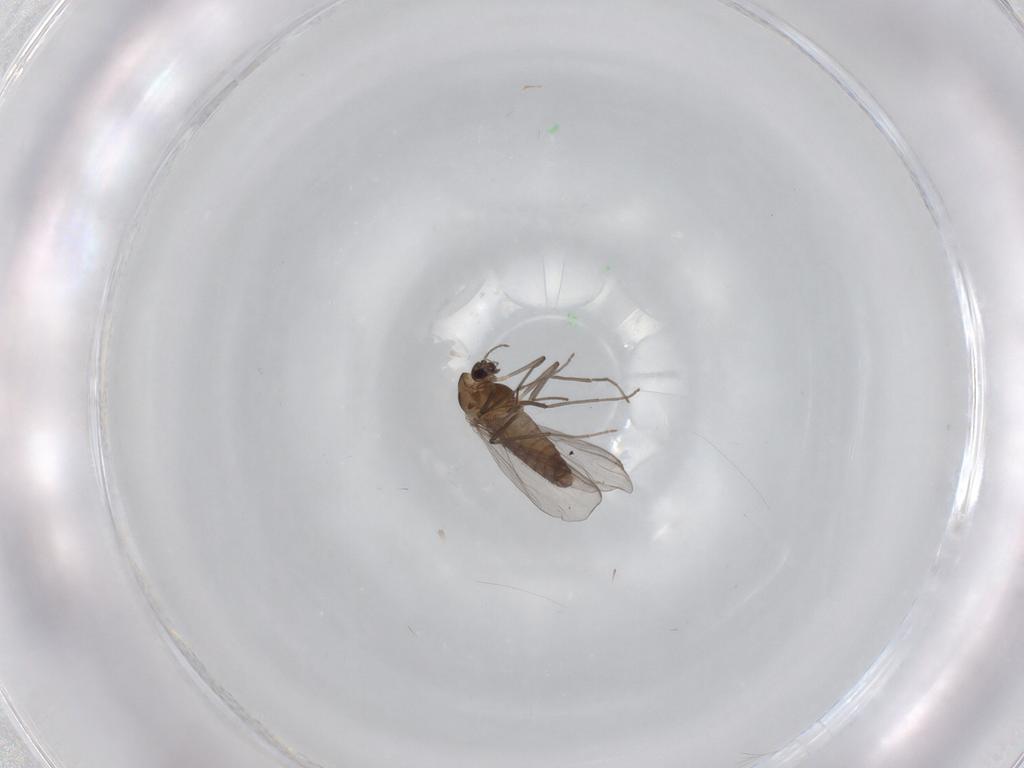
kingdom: Animalia
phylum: Arthropoda
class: Insecta
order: Diptera
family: Chironomidae
